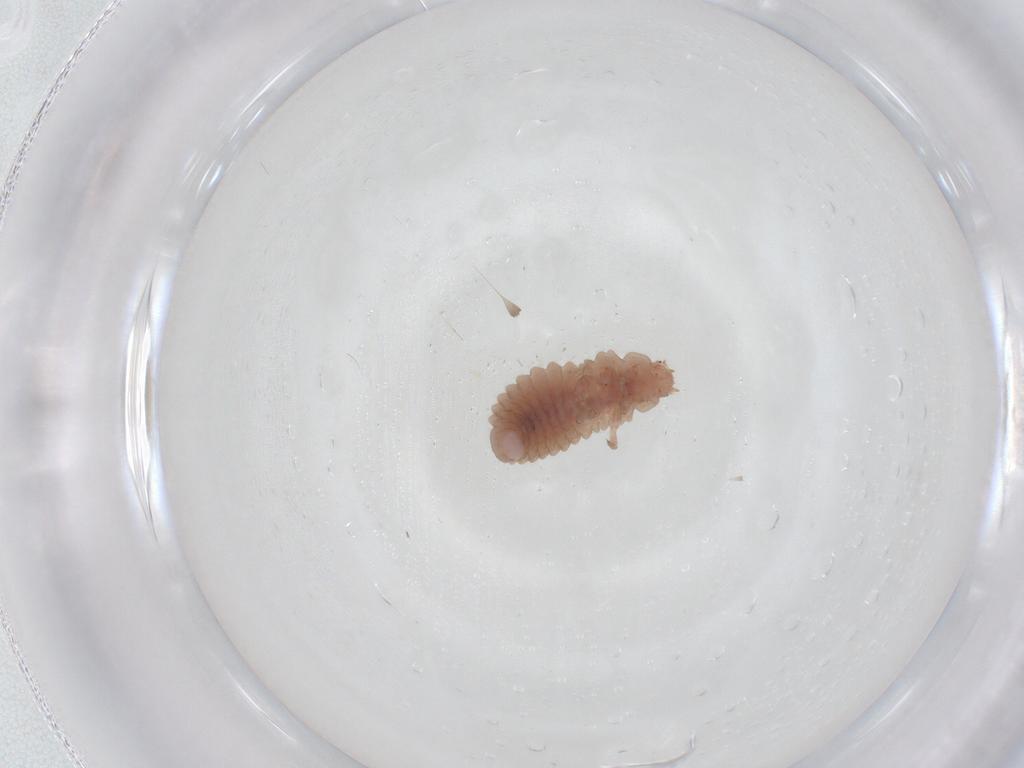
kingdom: Animalia
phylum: Arthropoda
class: Insecta
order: Coleoptera
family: Coccinellidae
